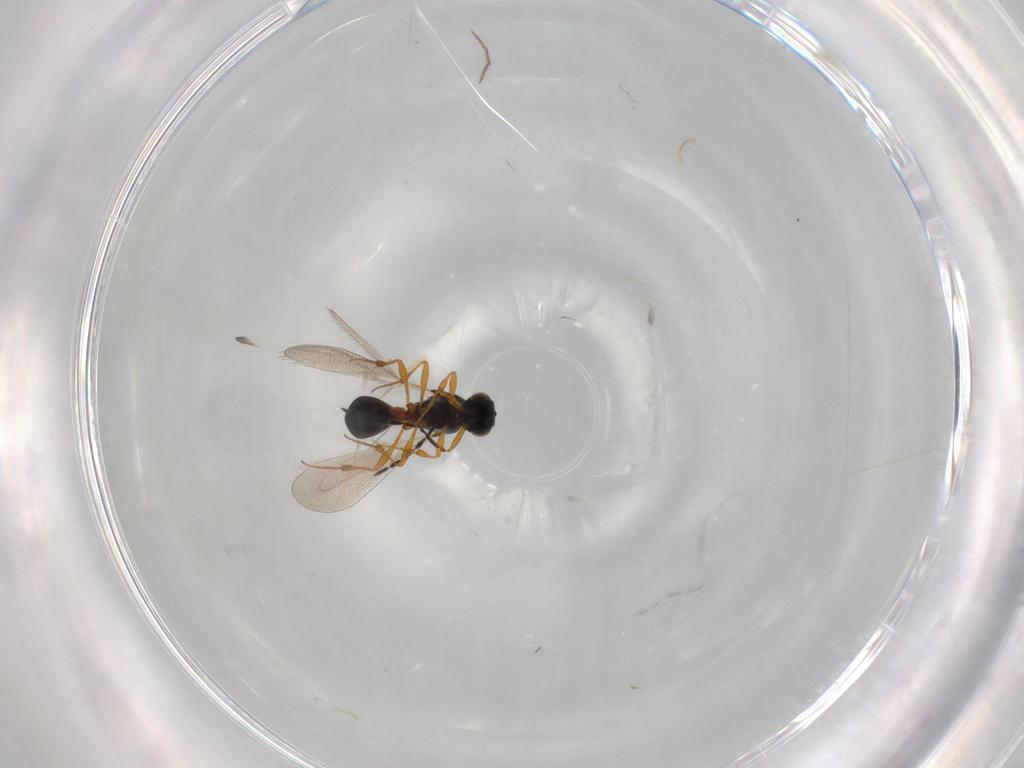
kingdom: Animalia
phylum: Arthropoda
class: Insecta
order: Hymenoptera
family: Platygastridae
